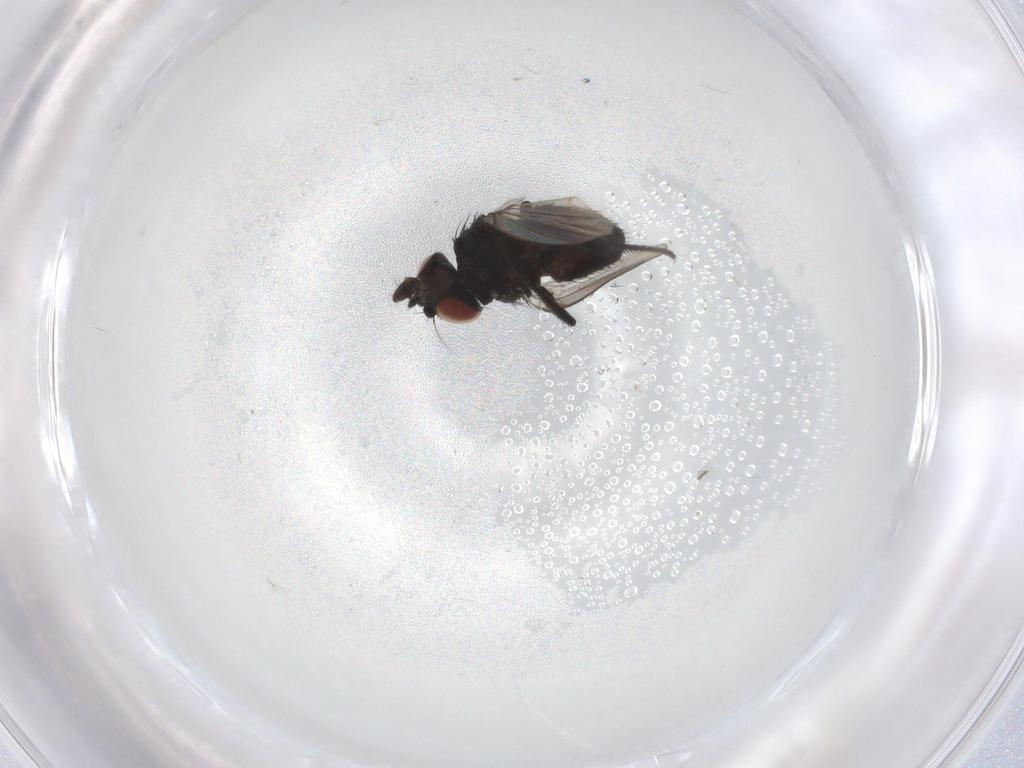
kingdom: Animalia
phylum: Arthropoda
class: Insecta
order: Diptera
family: Milichiidae
